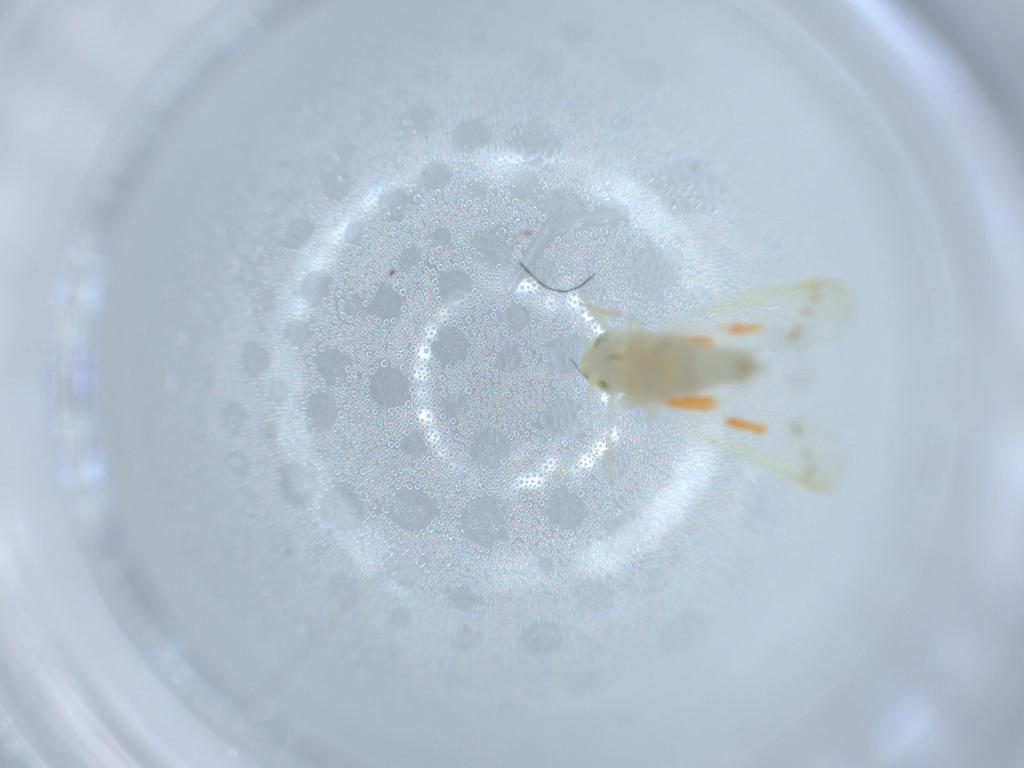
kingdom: Animalia
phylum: Arthropoda
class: Insecta
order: Hemiptera
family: Cicadellidae
